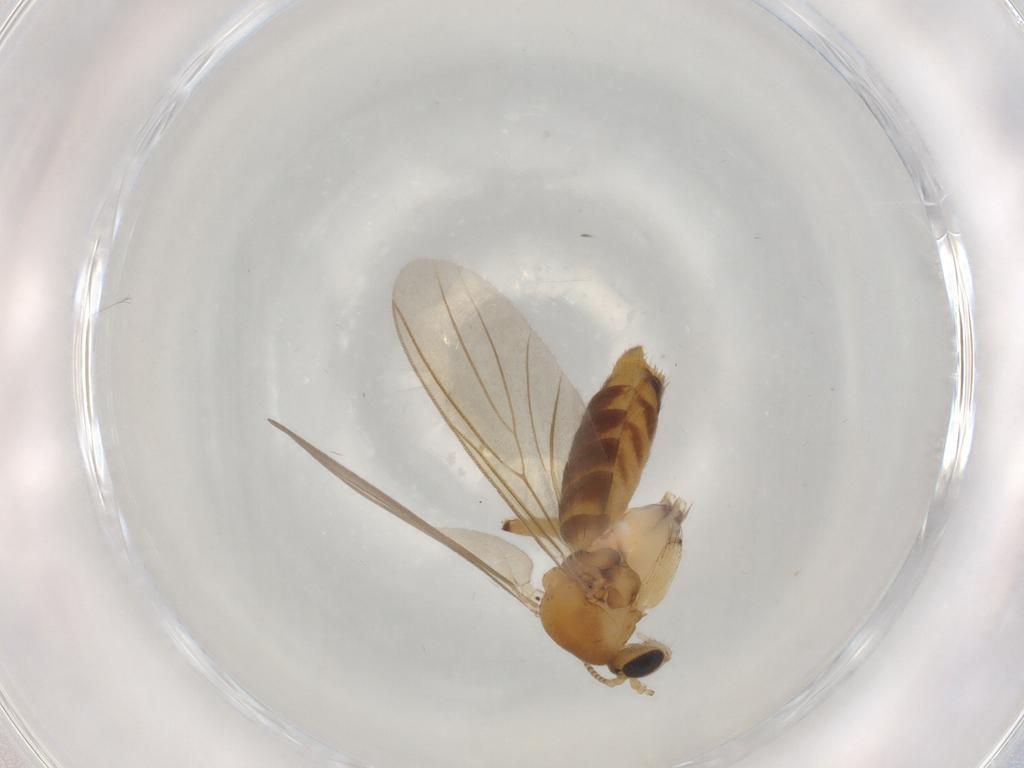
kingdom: Animalia
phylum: Arthropoda
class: Insecta
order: Diptera
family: Mycetophilidae
